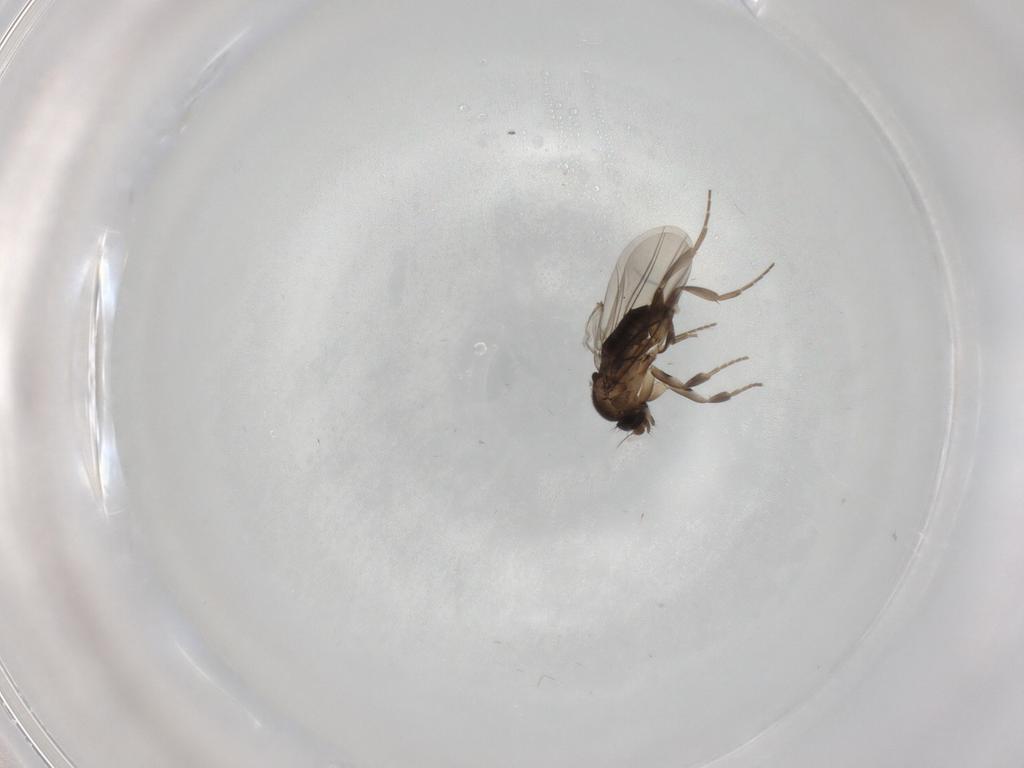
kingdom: Animalia
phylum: Arthropoda
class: Insecta
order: Diptera
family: Phoridae
